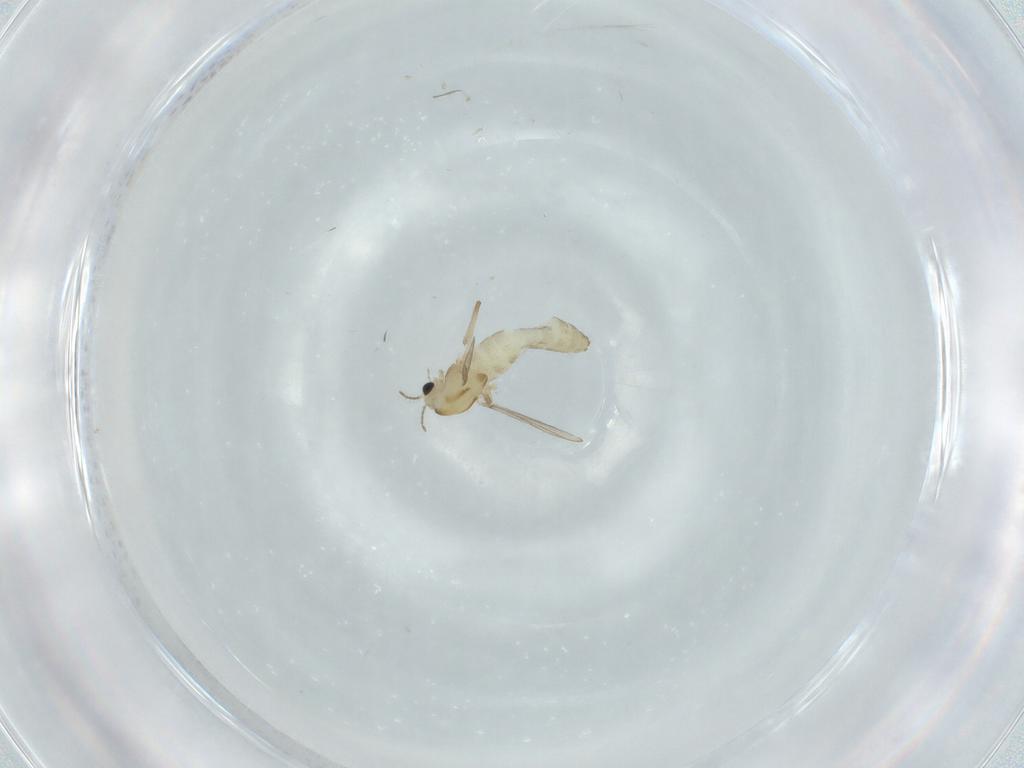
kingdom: Animalia
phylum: Arthropoda
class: Insecta
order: Diptera
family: Chironomidae
